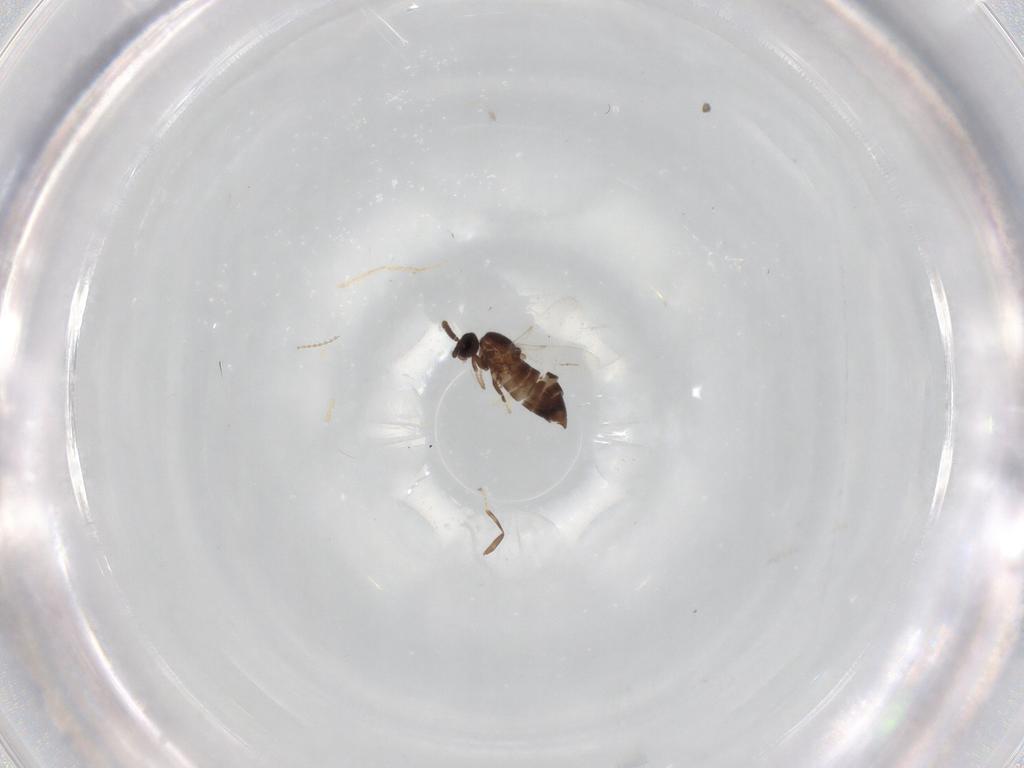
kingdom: Animalia
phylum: Arthropoda
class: Insecta
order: Diptera
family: Scatopsidae
